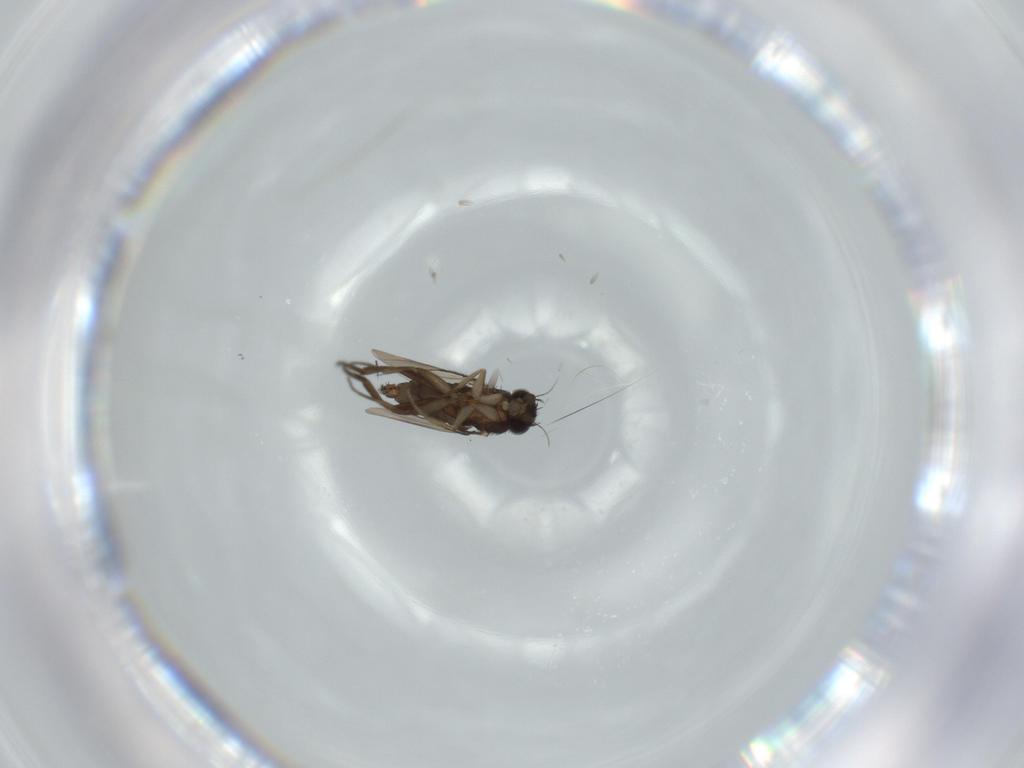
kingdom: Animalia
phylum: Arthropoda
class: Insecta
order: Diptera
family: Phoridae
